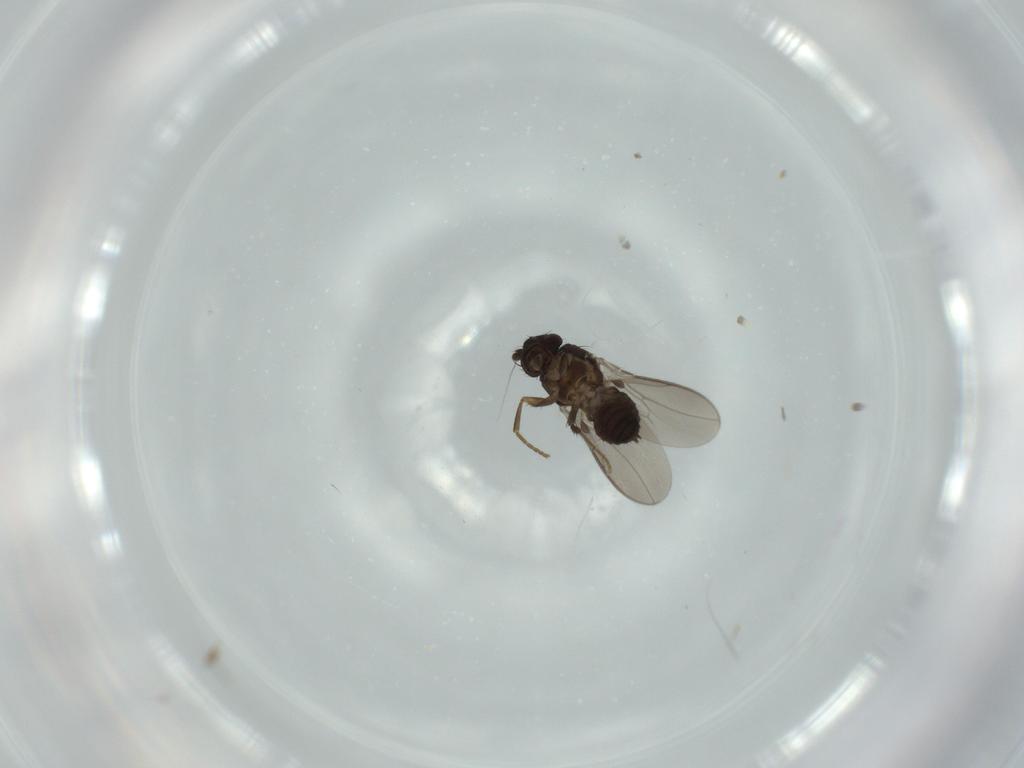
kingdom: Animalia
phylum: Arthropoda
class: Insecta
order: Diptera
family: Sphaeroceridae
